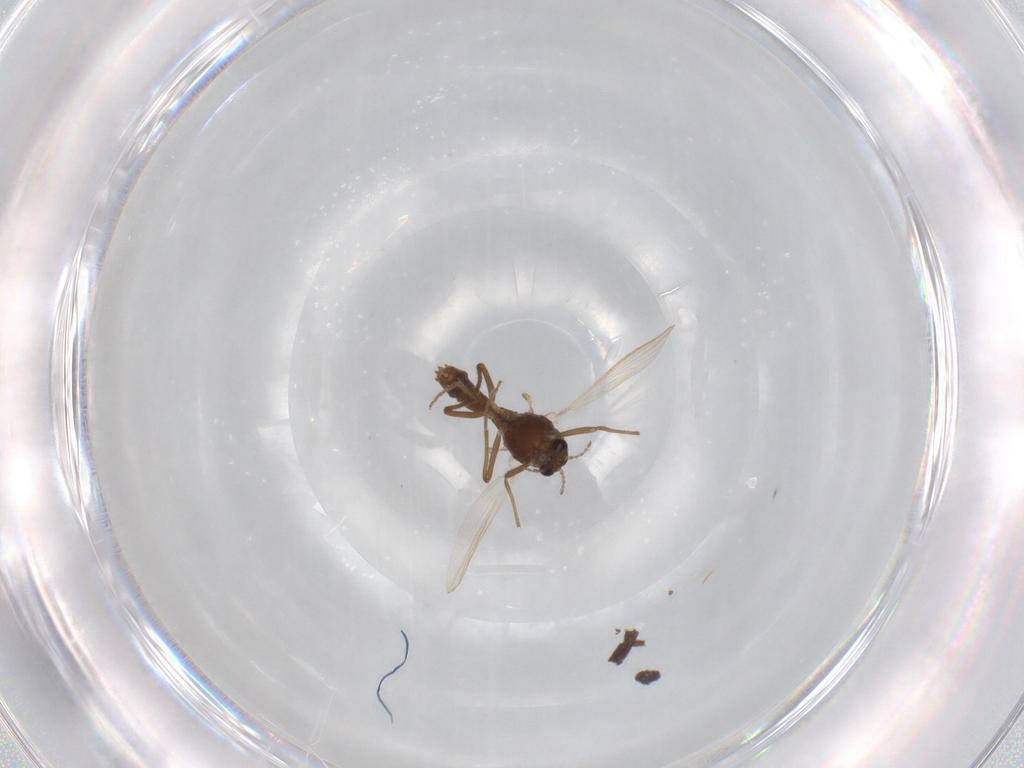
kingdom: Animalia
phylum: Arthropoda
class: Insecta
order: Diptera
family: Chironomidae
